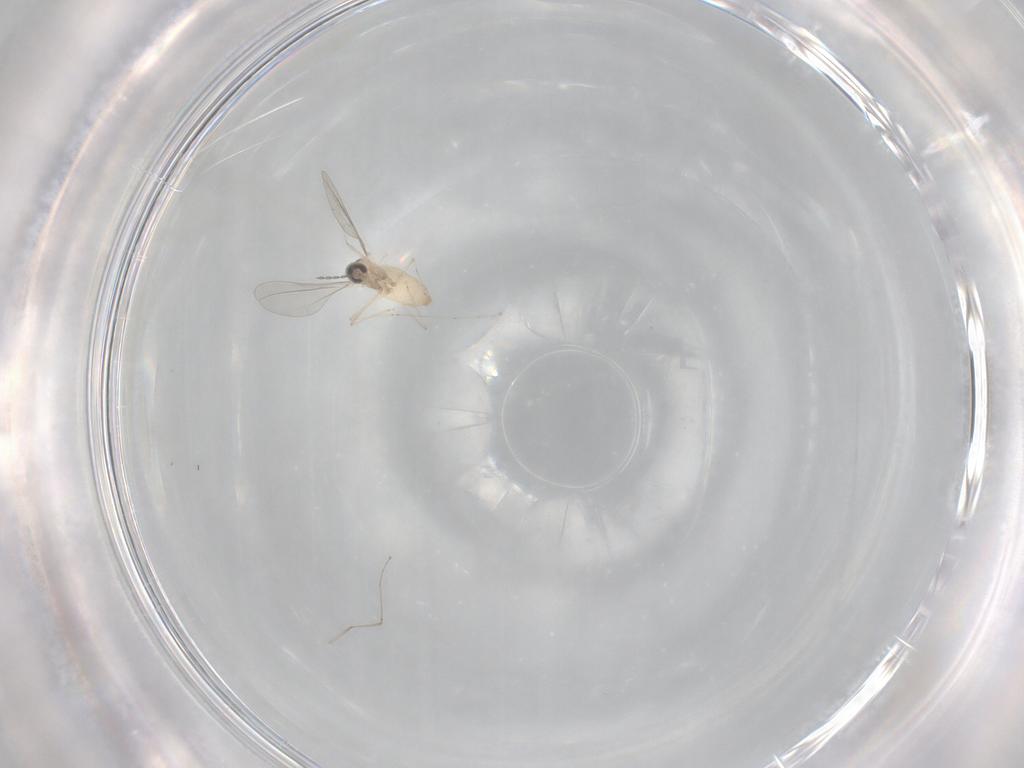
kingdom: Animalia
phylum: Arthropoda
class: Insecta
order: Diptera
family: Cecidomyiidae
